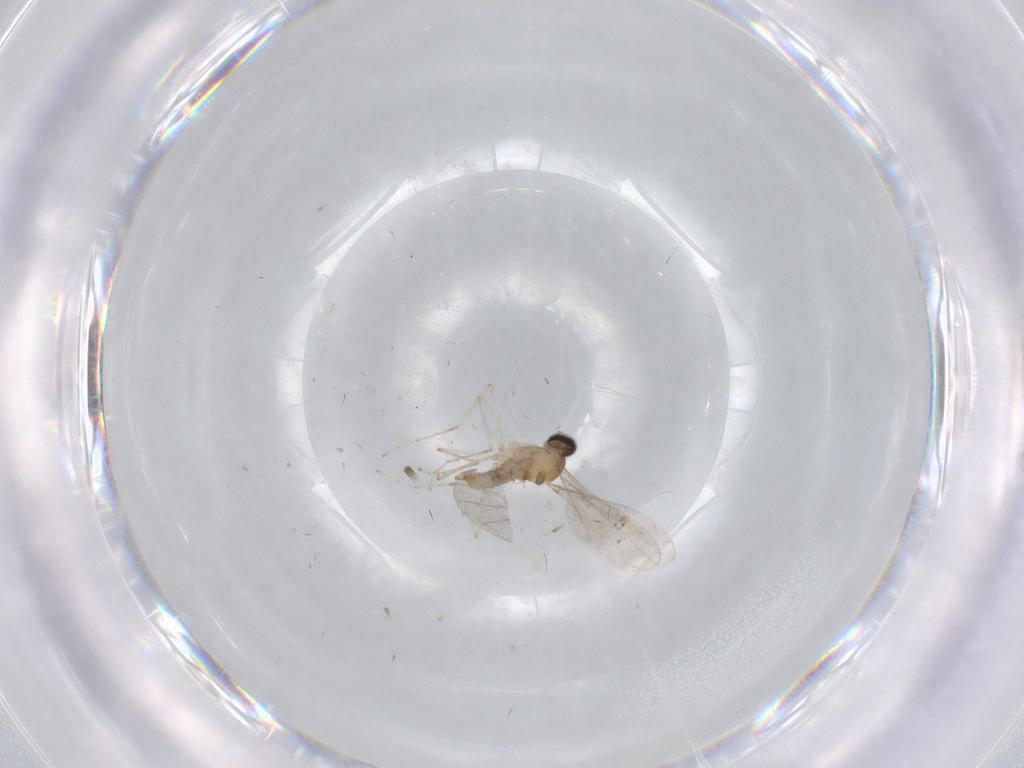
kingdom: Animalia
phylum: Arthropoda
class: Insecta
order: Diptera
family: Cecidomyiidae
